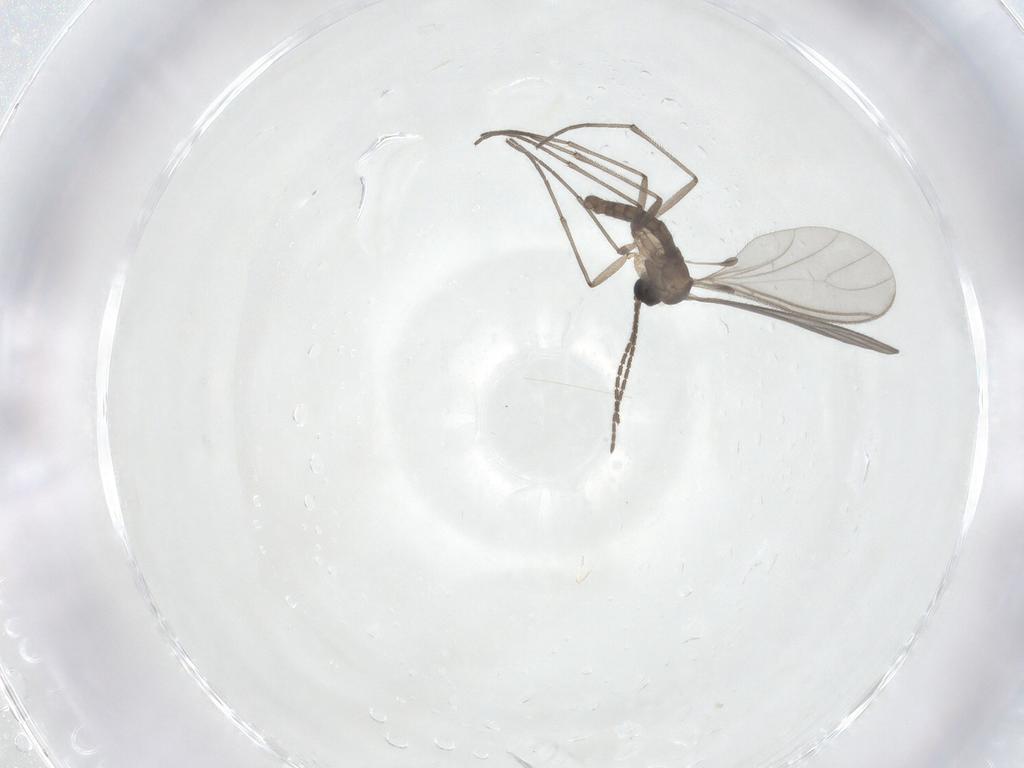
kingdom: Animalia
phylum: Arthropoda
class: Insecta
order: Diptera
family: Sciaridae
